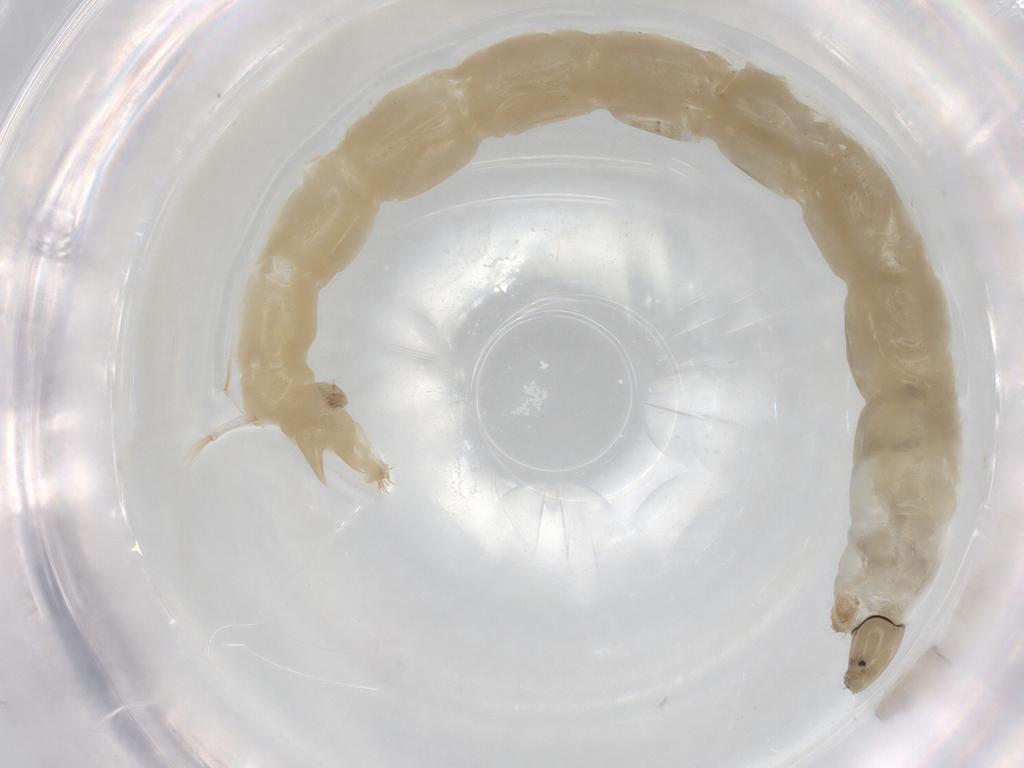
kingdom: Animalia
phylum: Arthropoda
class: Insecta
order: Diptera
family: Chironomidae
